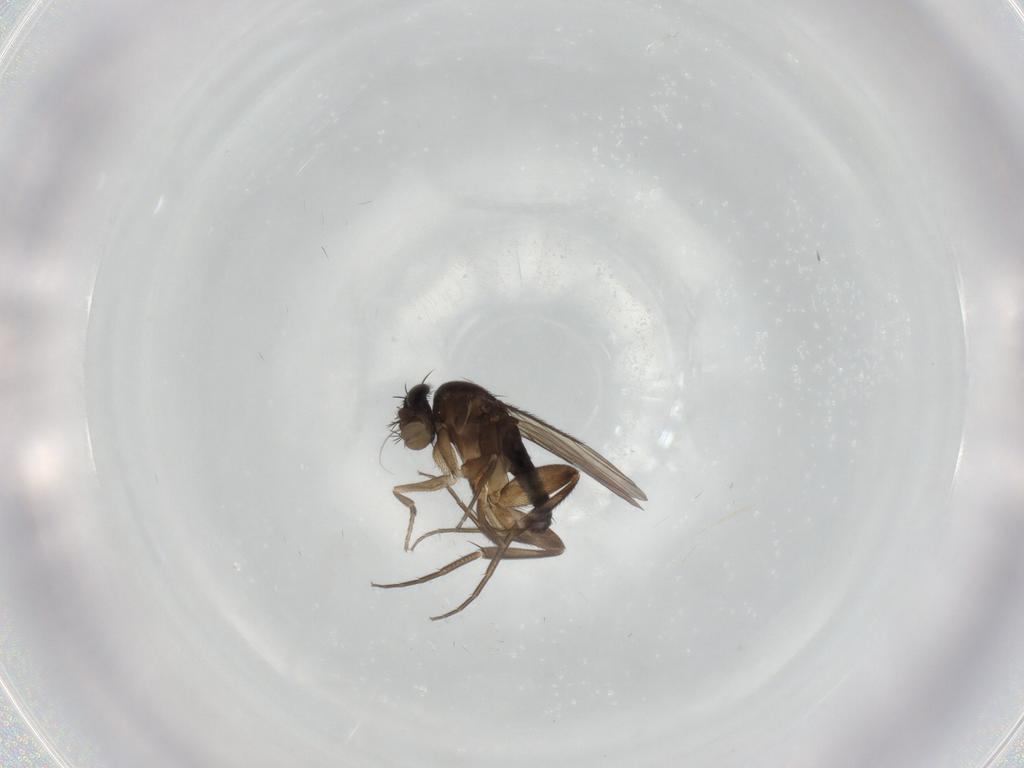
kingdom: Animalia
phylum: Arthropoda
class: Insecta
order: Diptera
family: Phoridae
